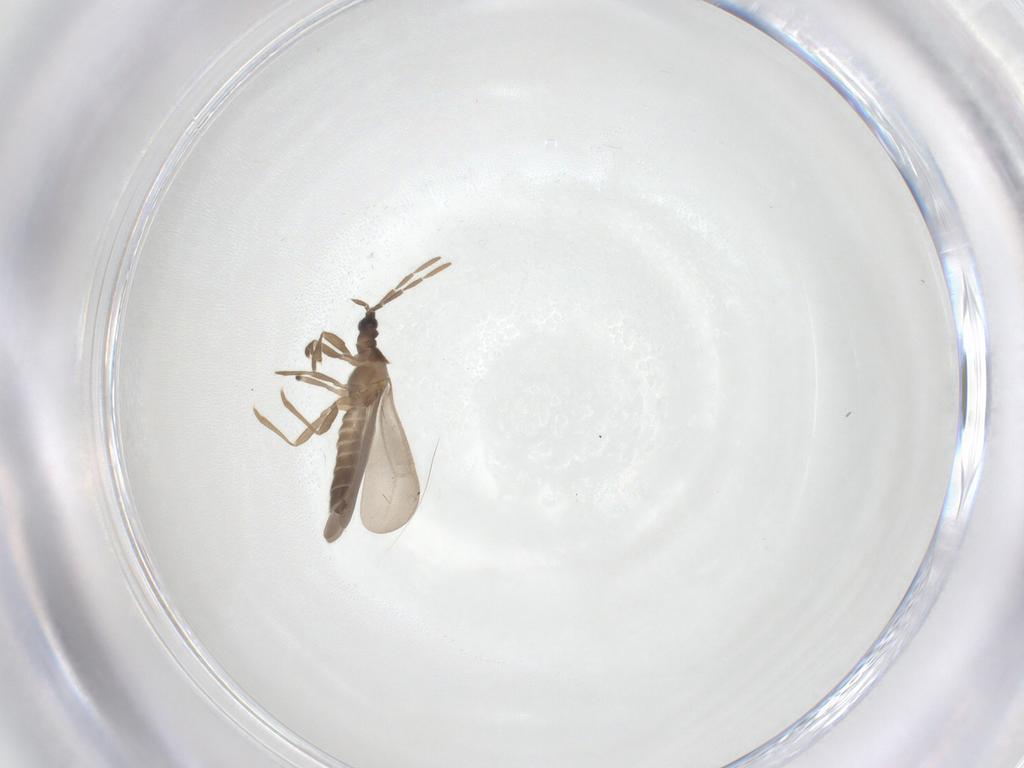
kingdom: Animalia
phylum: Arthropoda
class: Insecta
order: Hemiptera
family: Enicocephalidae
